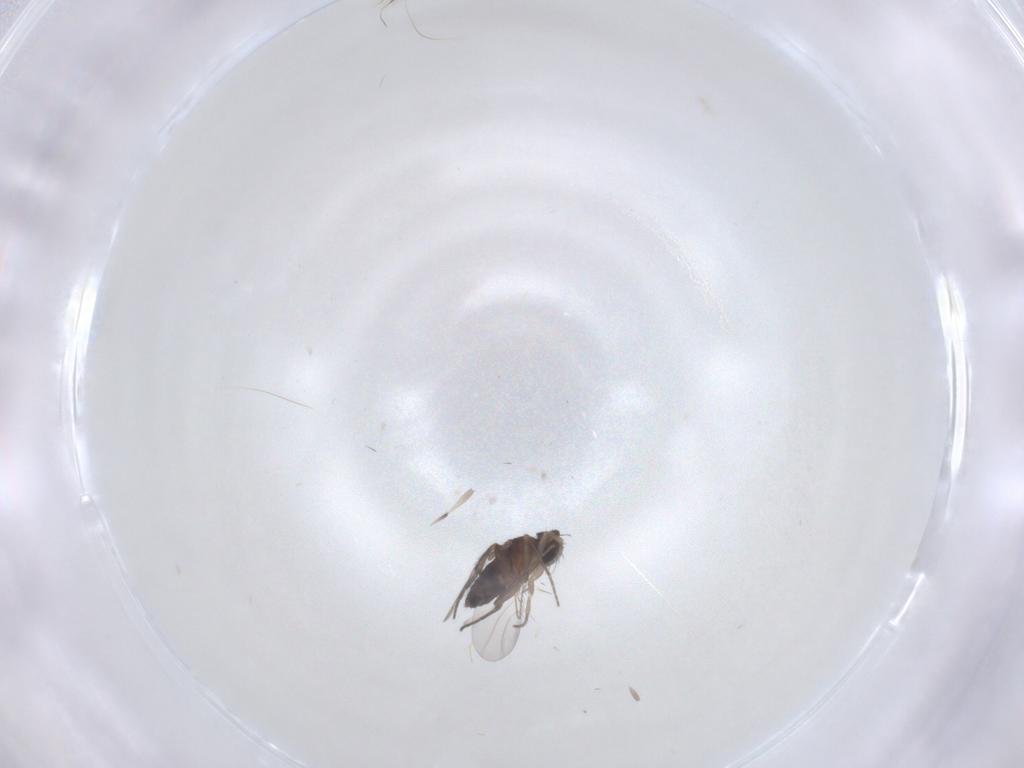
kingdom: Animalia
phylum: Arthropoda
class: Insecta
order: Diptera
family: Phoridae
